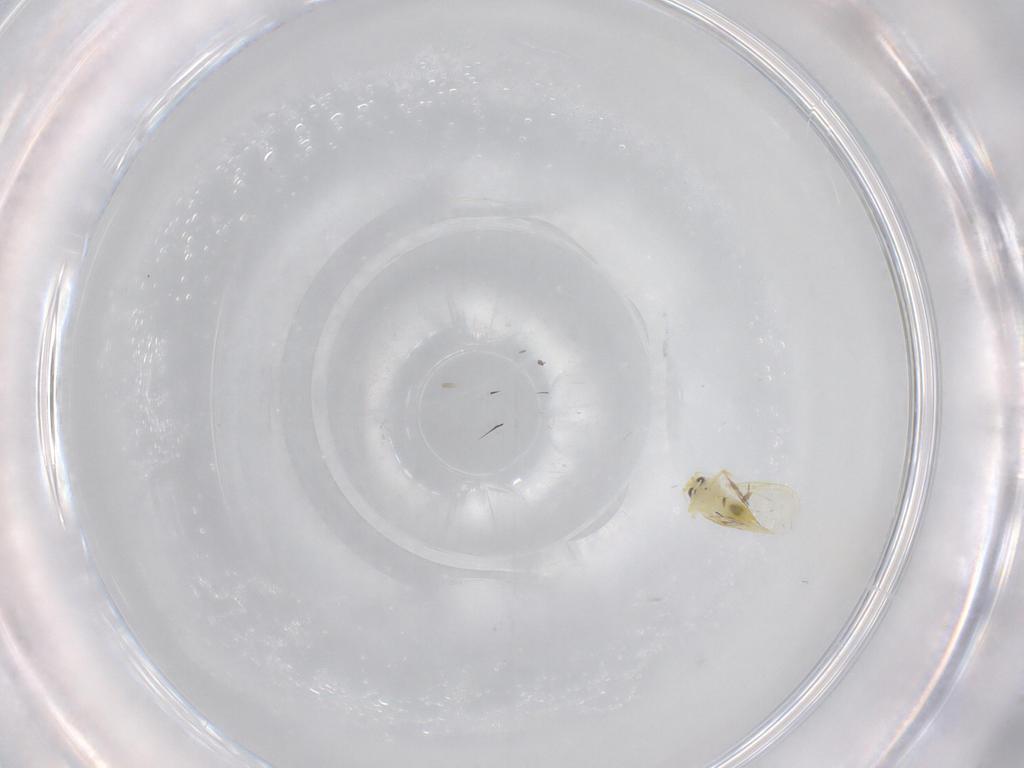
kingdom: Animalia
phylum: Arthropoda
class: Insecta
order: Hemiptera
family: Aleyrodidae
